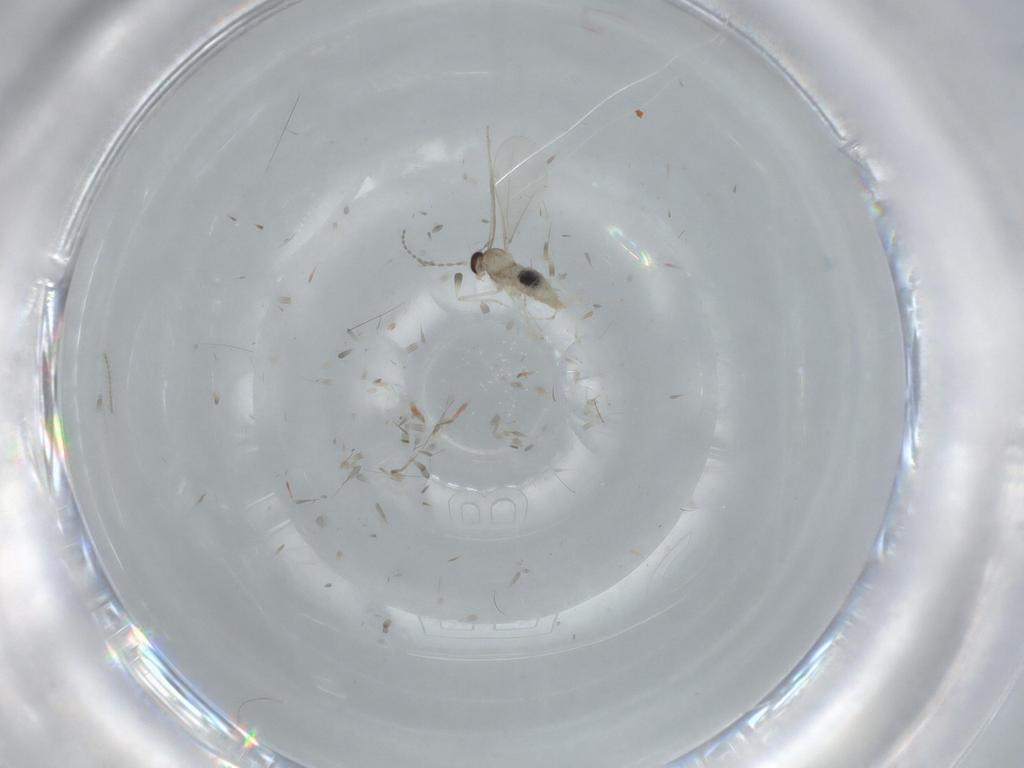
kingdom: Animalia
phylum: Arthropoda
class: Insecta
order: Diptera
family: Cecidomyiidae
